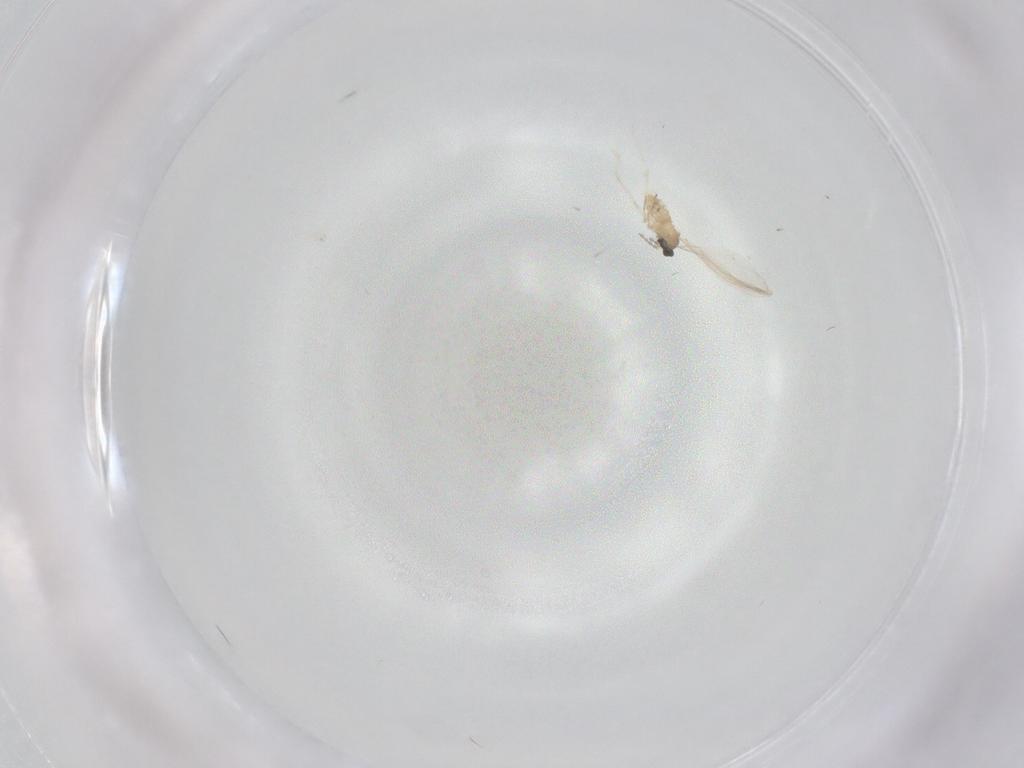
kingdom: Animalia
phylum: Arthropoda
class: Insecta
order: Diptera
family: Cecidomyiidae
